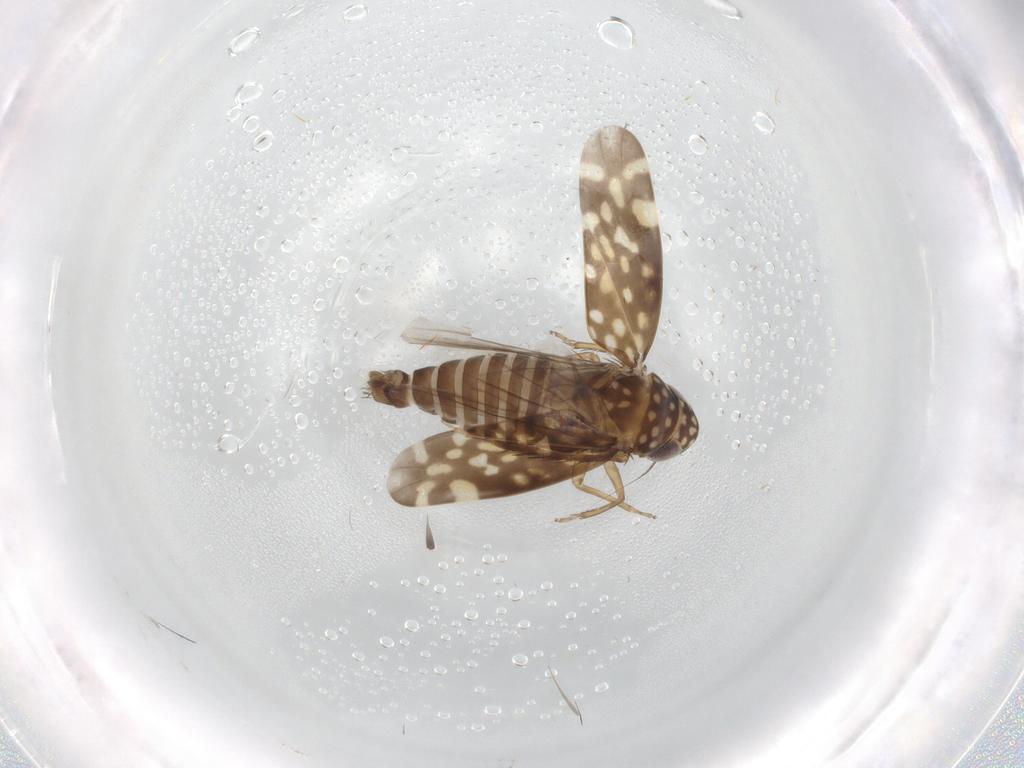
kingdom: Animalia
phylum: Arthropoda
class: Insecta
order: Hemiptera
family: Cicadellidae
